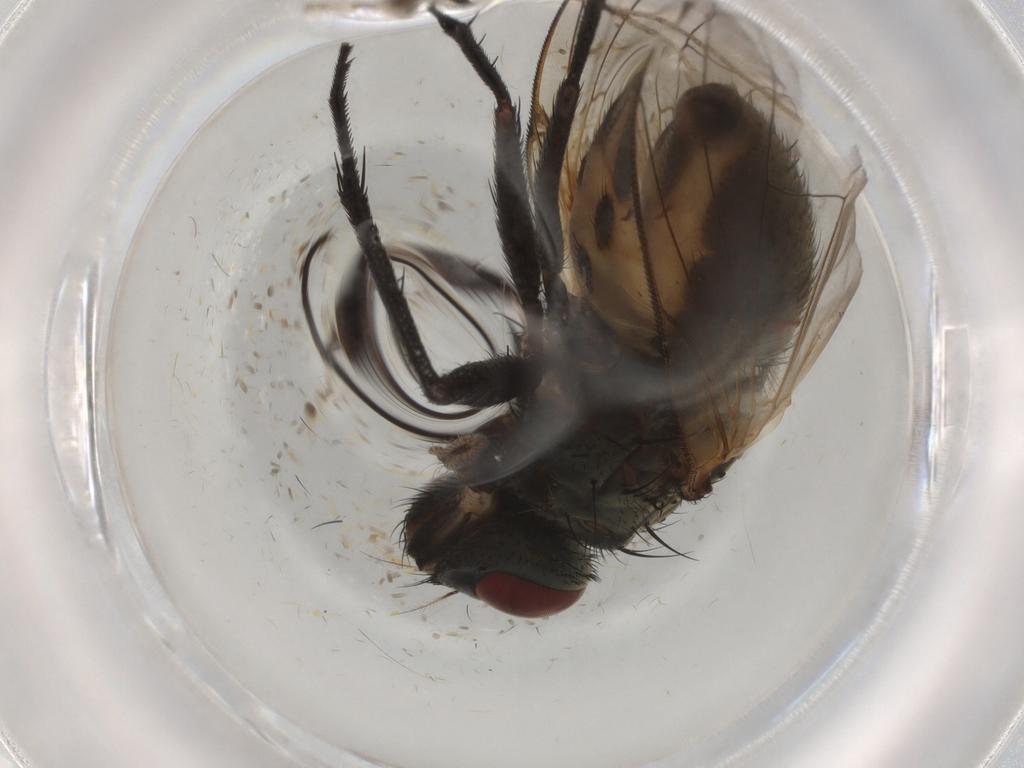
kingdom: Animalia
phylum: Arthropoda
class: Insecta
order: Diptera
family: Psychodidae
